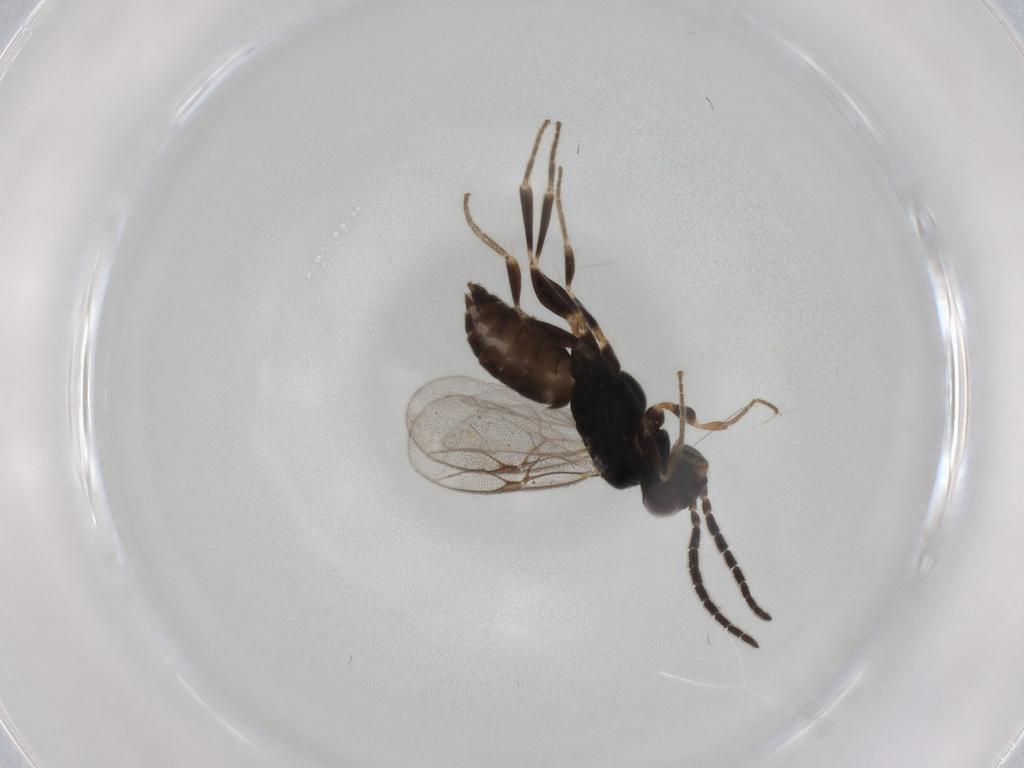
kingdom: Animalia
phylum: Arthropoda
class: Insecta
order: Hymenoptera
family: Dryinidae
